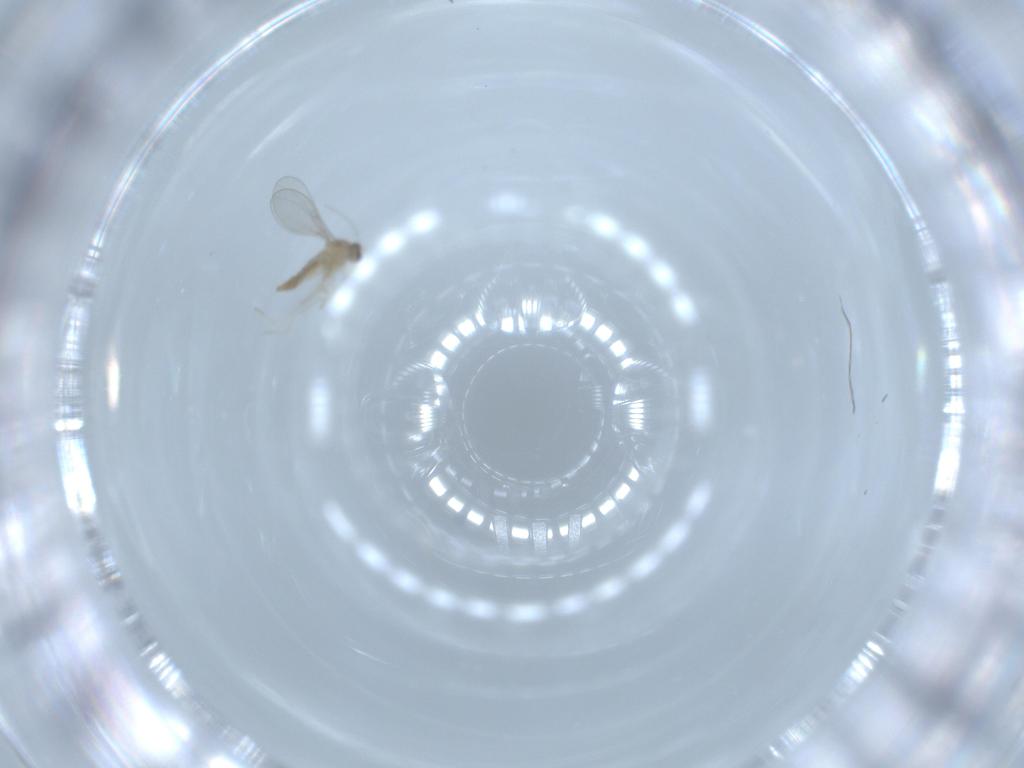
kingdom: Animalia
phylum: Arthropoda
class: Insecta
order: Diptera
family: Cecidomyiidae
